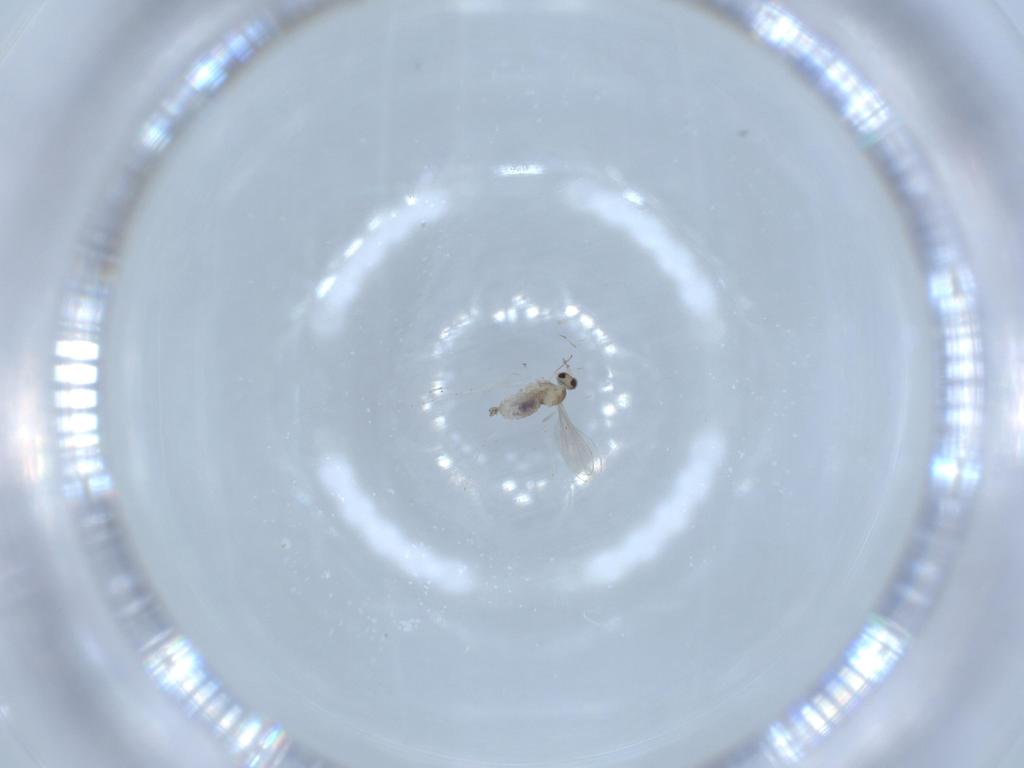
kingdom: Animalia
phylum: Arthropoda
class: Insecta
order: Diptera
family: Cecidomyiidae
